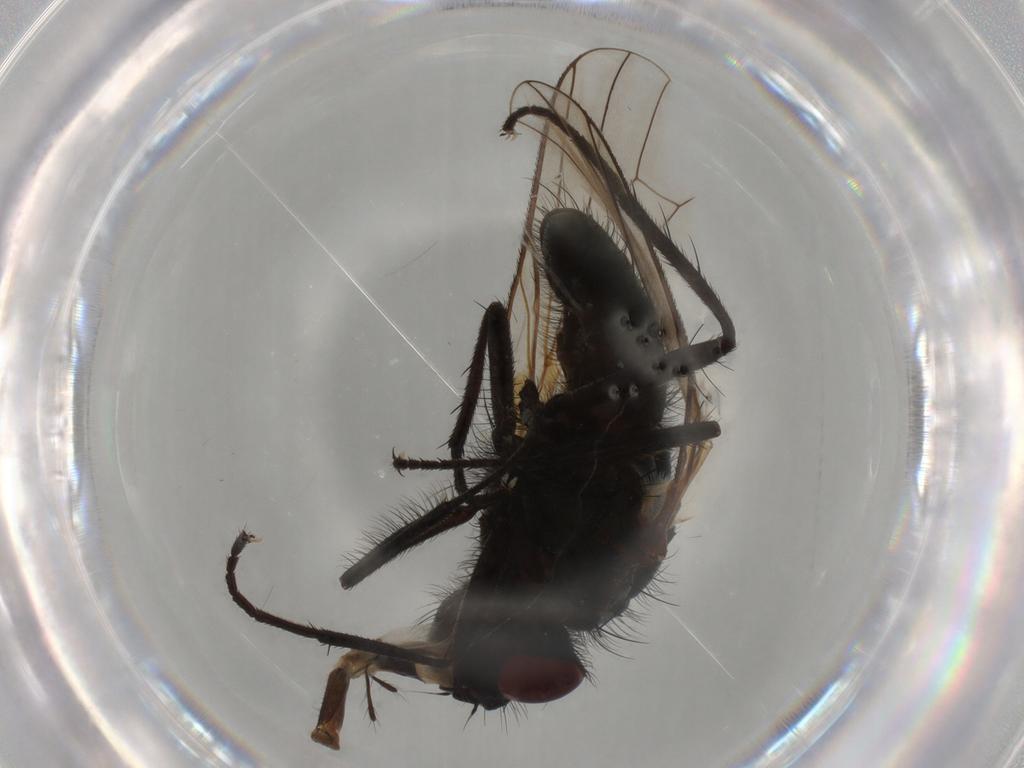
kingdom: Animalia
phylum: Arthropoda
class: Insecta
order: Diptera
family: Anthomyiidae
